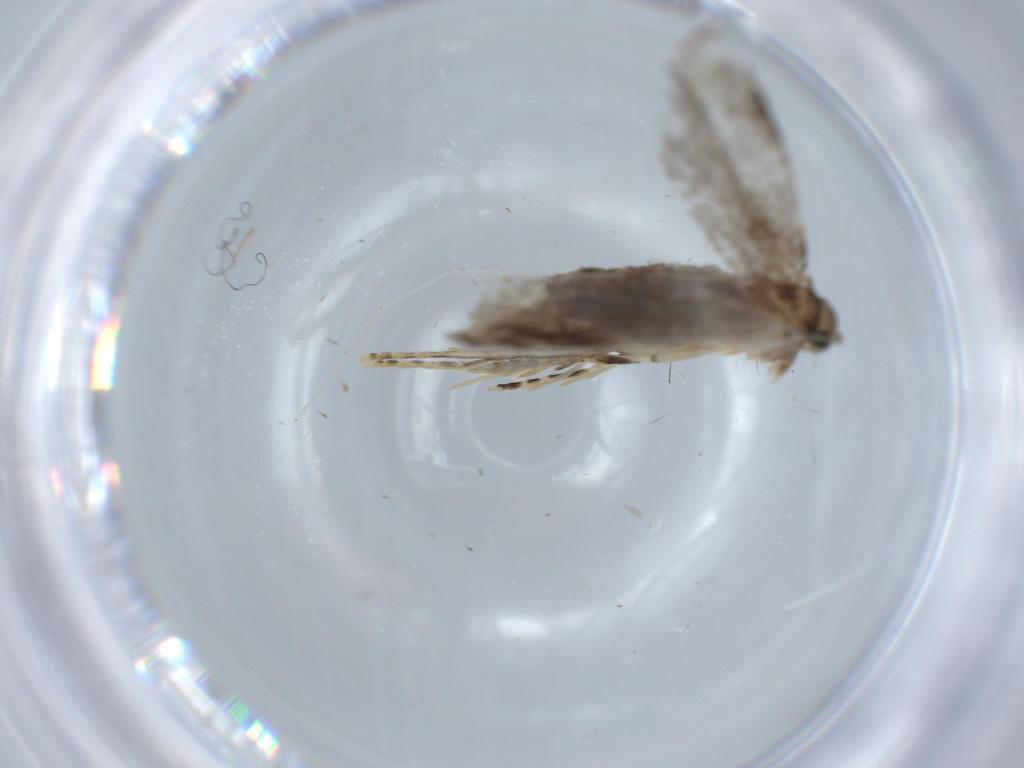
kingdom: Animalia
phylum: Arthropoda
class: Insecta
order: Lepidoptera
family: Tineidae
